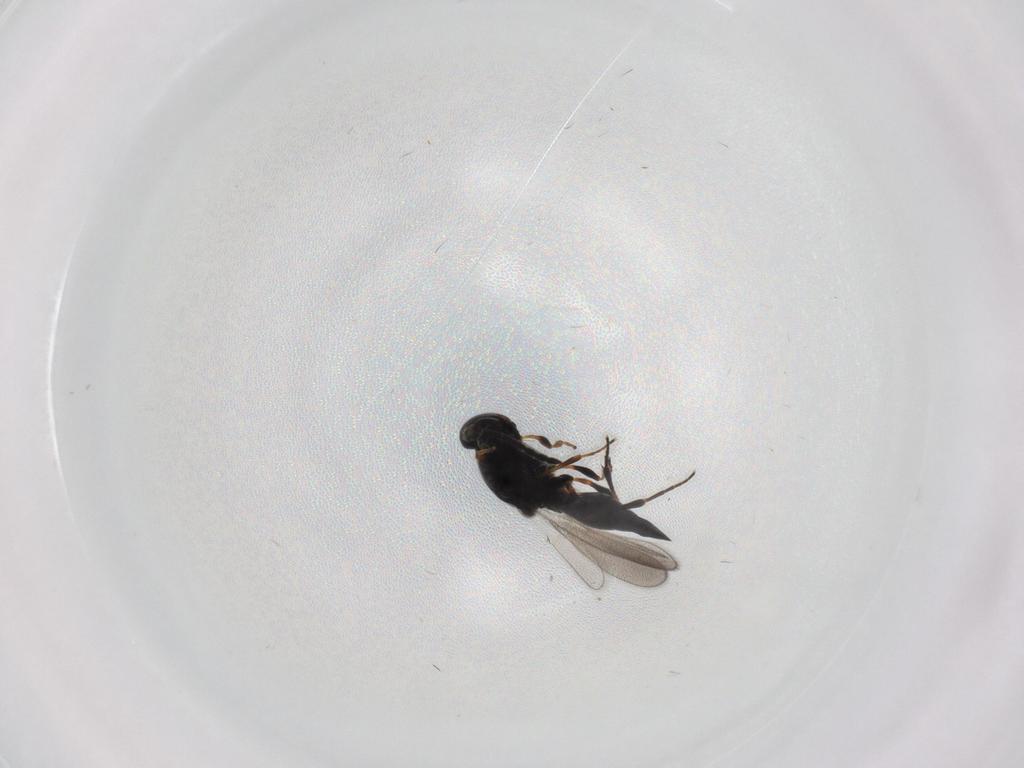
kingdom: Animalia
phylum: Arthropoda
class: Insecta
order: Hymenoptera
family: Platygastridae
